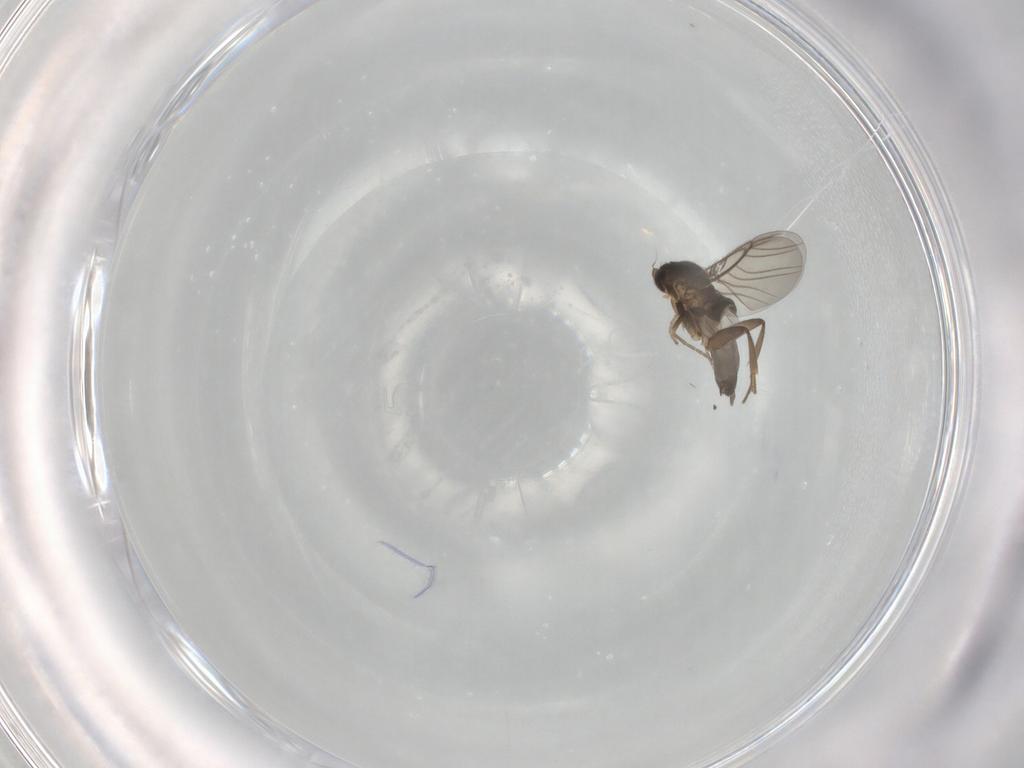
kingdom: Animalia
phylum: Arthropoda
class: Insecta
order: Diptera
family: Phoridae
